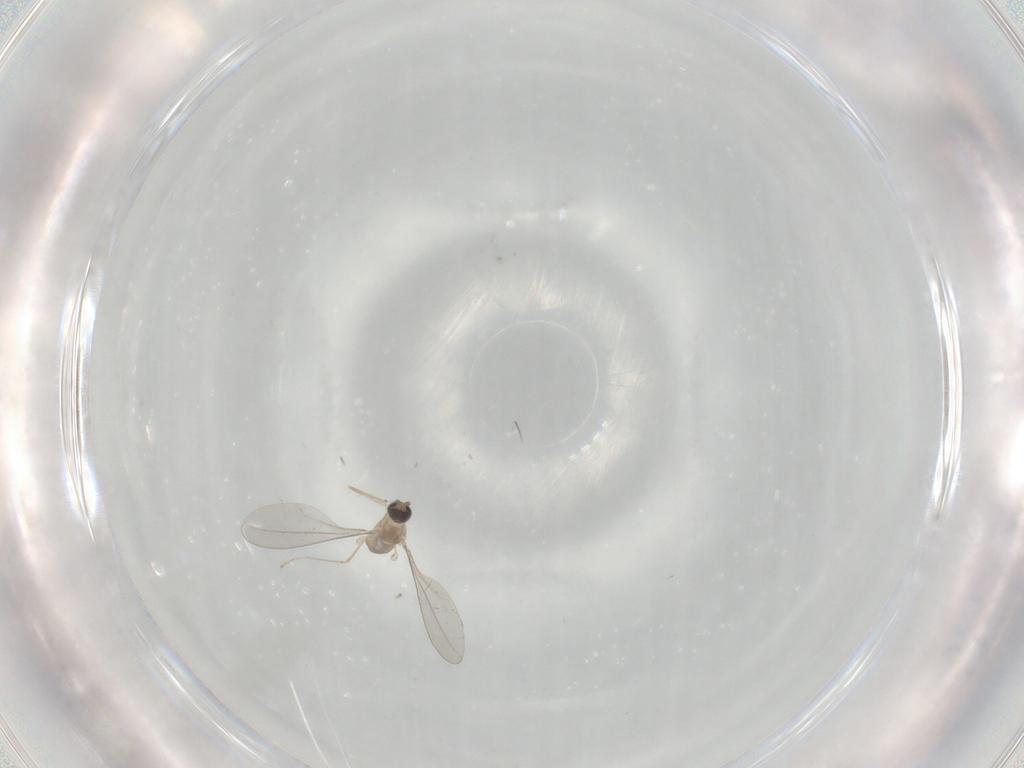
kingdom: Animalia
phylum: Arthropoda
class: Insecta
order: Diptera
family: Cecidomyiidae
